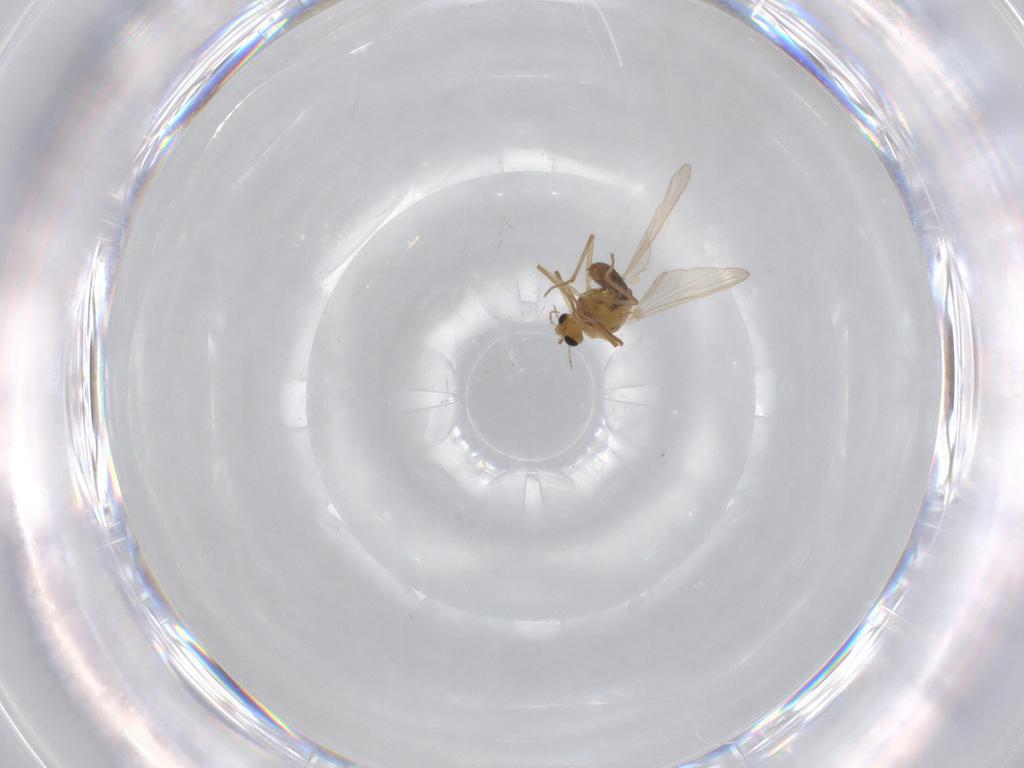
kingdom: Animalia
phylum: Arthropoda
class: Insecta
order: Diptera
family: Chironomidae
